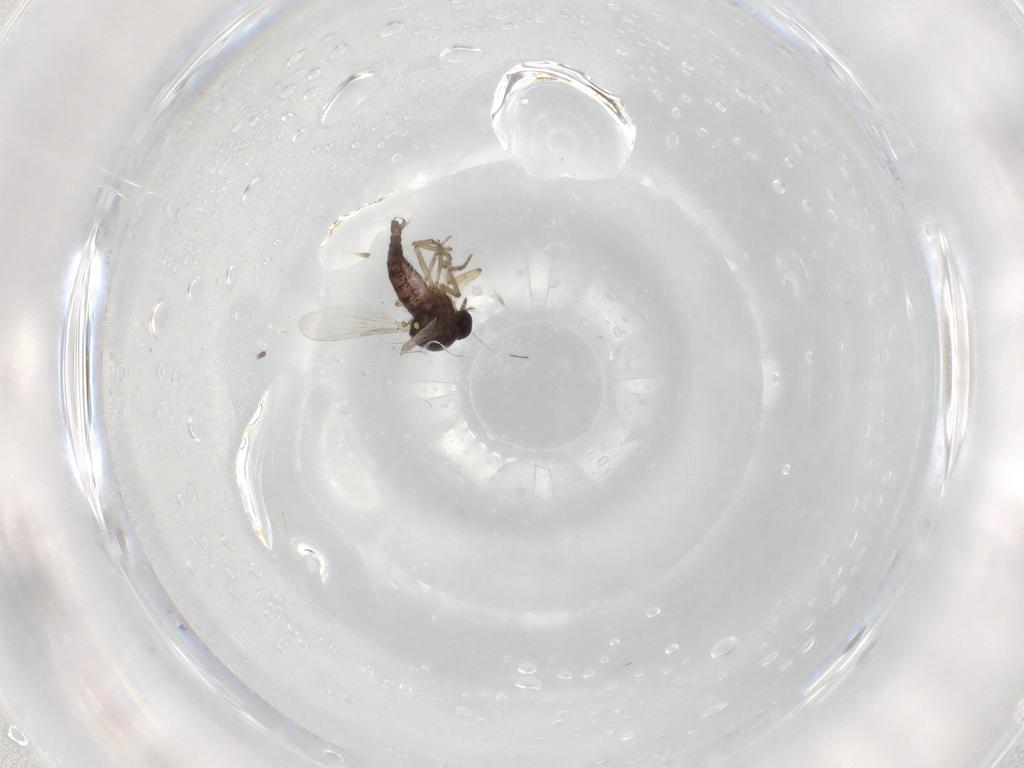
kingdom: Animalia
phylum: Arthropoda
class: Insecta
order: Diptera
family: Ceratopogonidae
